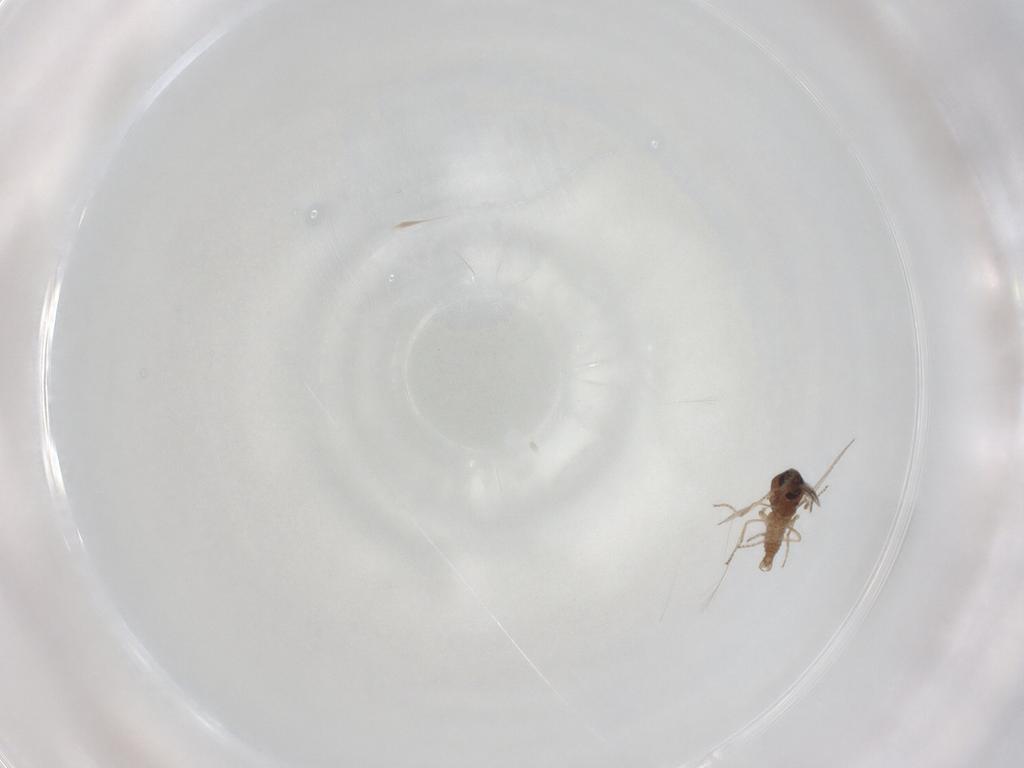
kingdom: Animalia
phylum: Arthropoda
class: Insecta
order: Diptera
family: Ceratopogonidae
